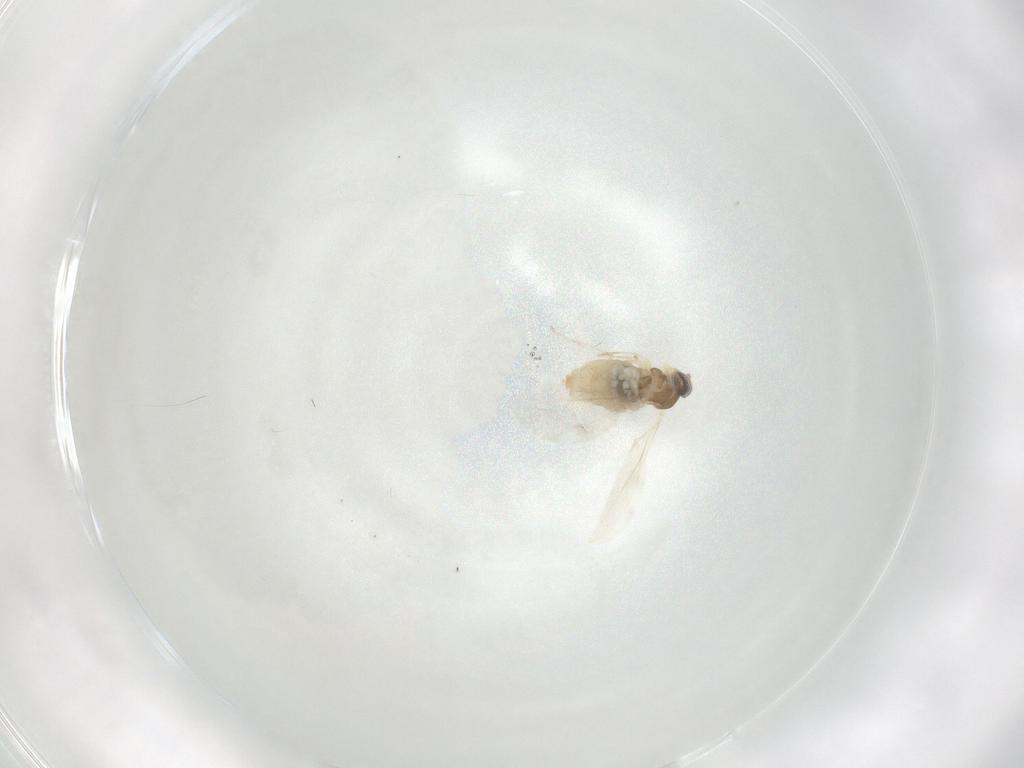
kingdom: Animalia
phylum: Arthropoda
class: Insecta
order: Diptera
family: Cecidomyiidae
